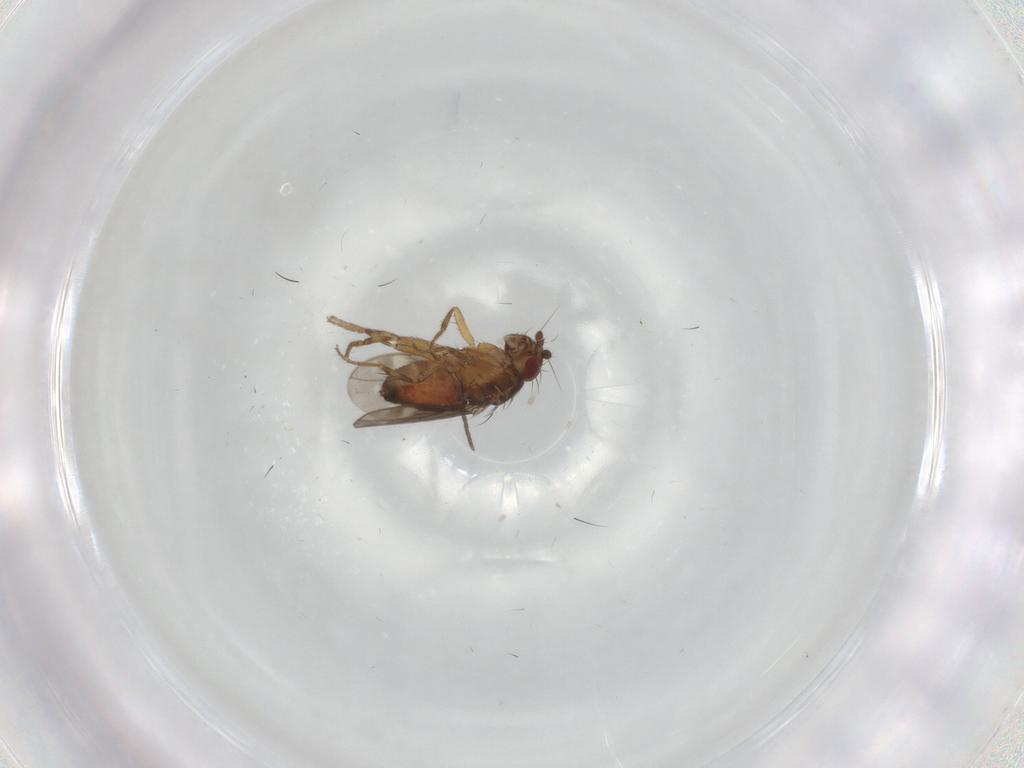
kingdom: Animalia
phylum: Arthropoda
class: Insecta
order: Diptera
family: Sphaeroceridae
